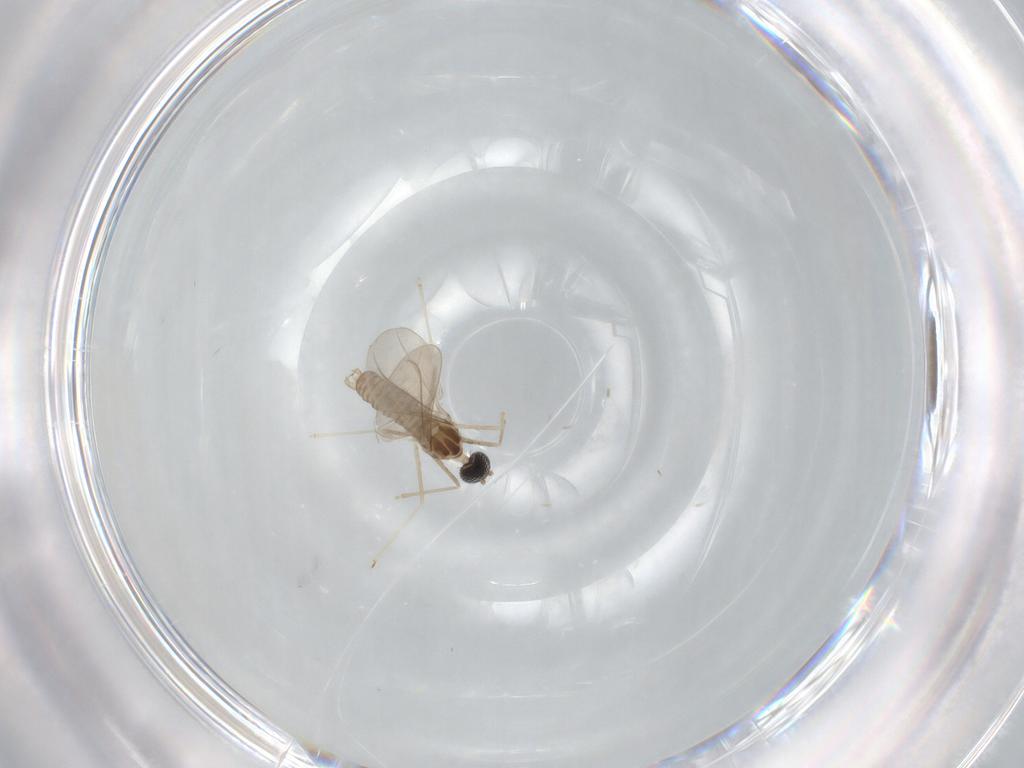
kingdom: Animalia
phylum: Arthropoda
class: Insecta
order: Diptera
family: Cecidomyiidae
